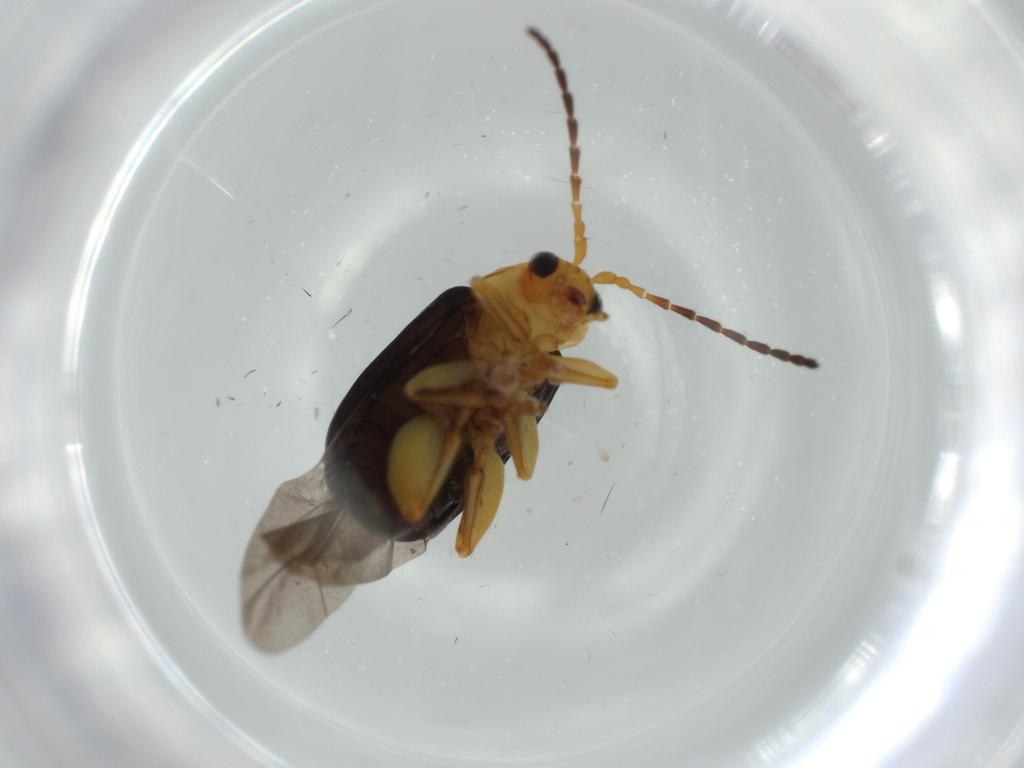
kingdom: Animalia
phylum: Arthropoda
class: Insecta
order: Coleoptera
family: Chrysomelidae
